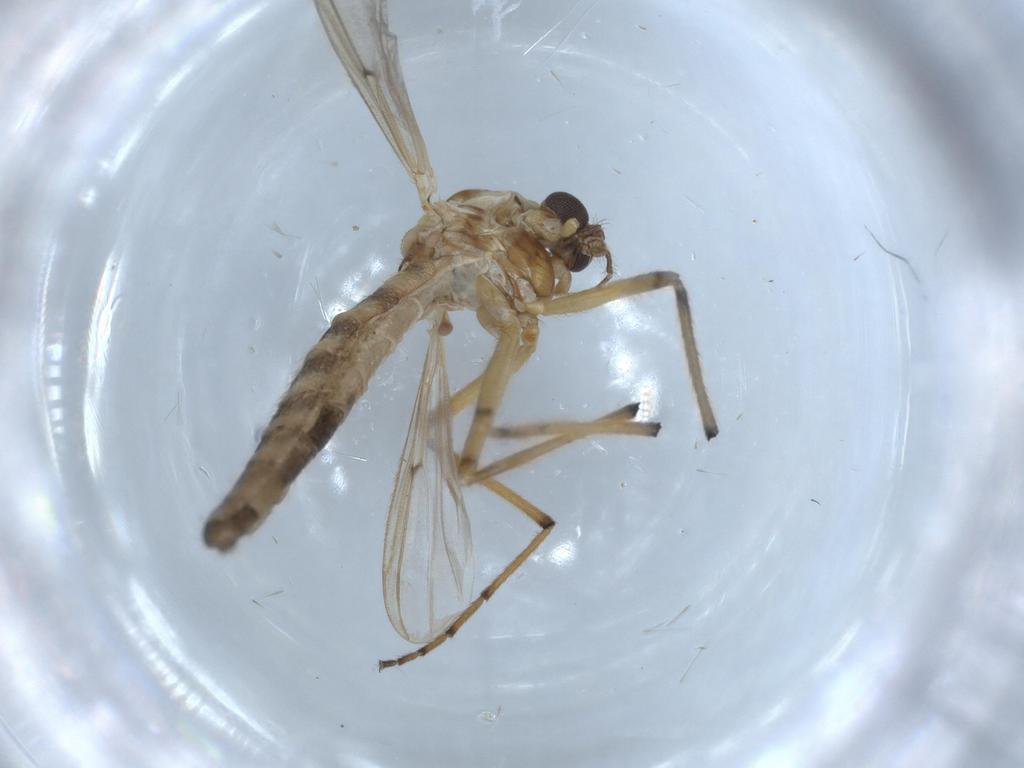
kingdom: Animalia
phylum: Arthropoda
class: Insecta
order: Diptera
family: Chironomidae
